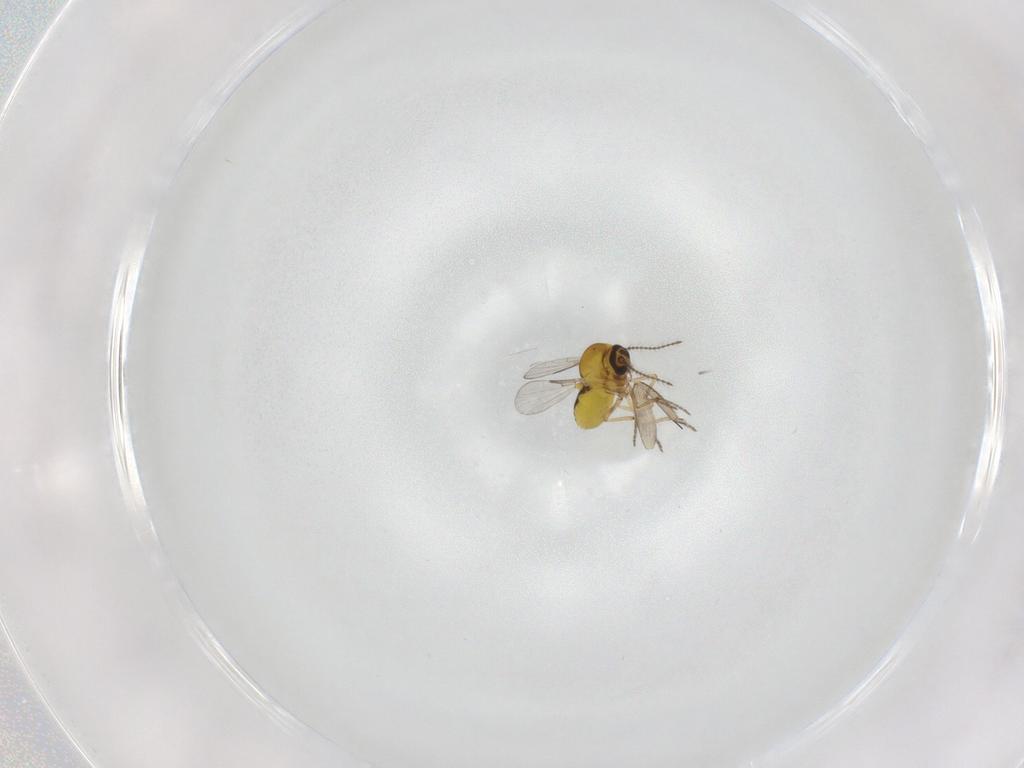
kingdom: Animalia
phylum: Arthropoda
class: Insecta
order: Diptera
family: Phoridae
